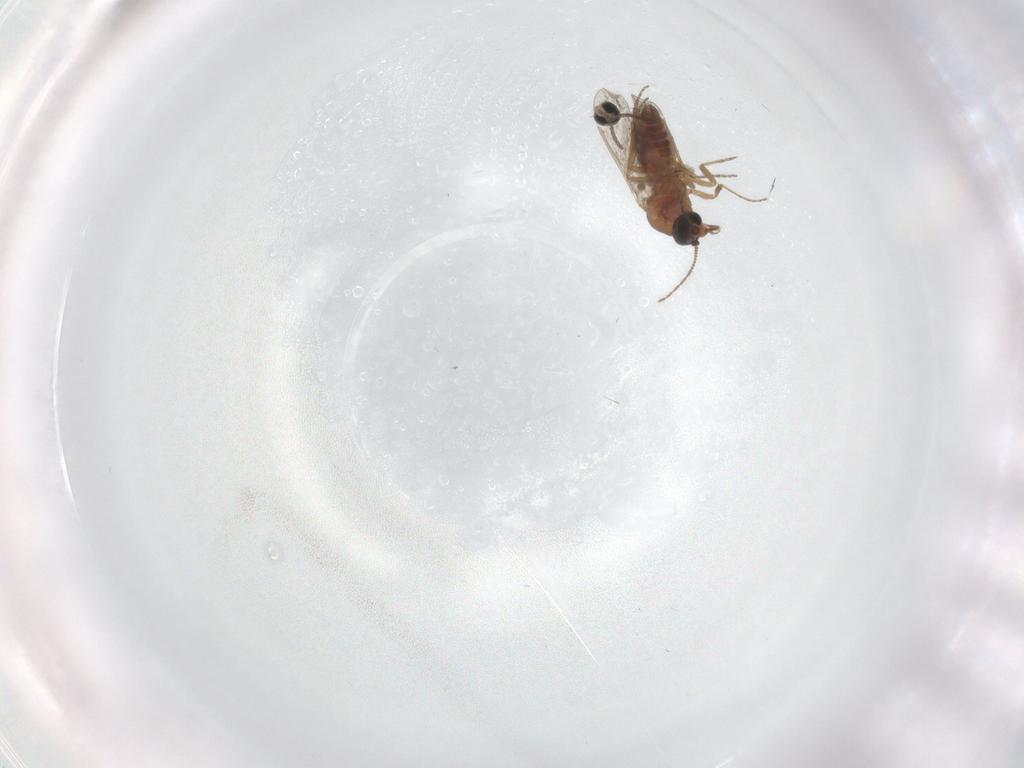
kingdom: Animalia
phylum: Arthropoda
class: Insecta
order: Diptera
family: Ceratopogonidae
